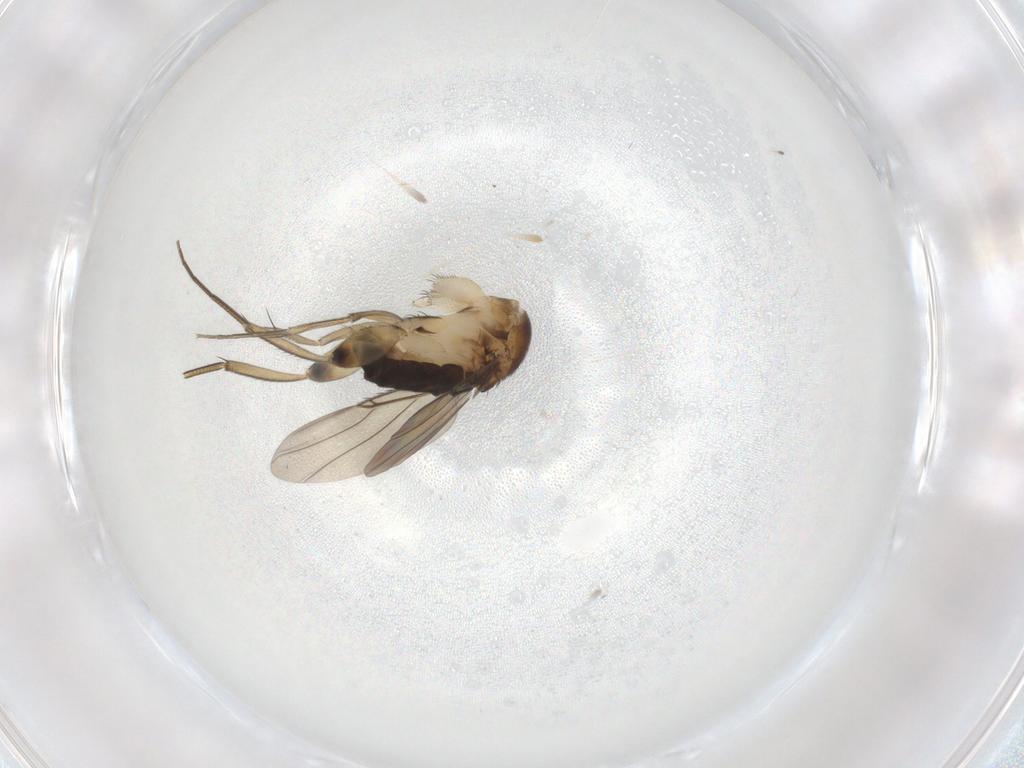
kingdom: Animalia
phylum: Arthropoda
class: Insecta
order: Diptera
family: Phoridae
